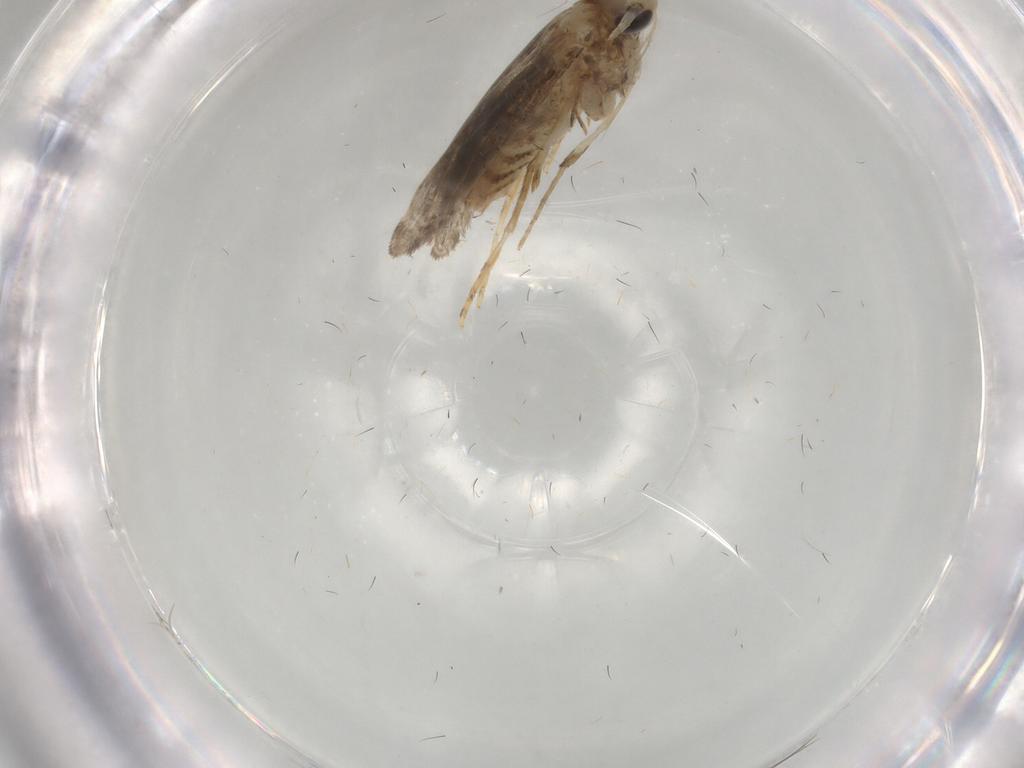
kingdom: Animalia
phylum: Arthropoda
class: Insecta
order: Lepidoptera
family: Gracillariidae
